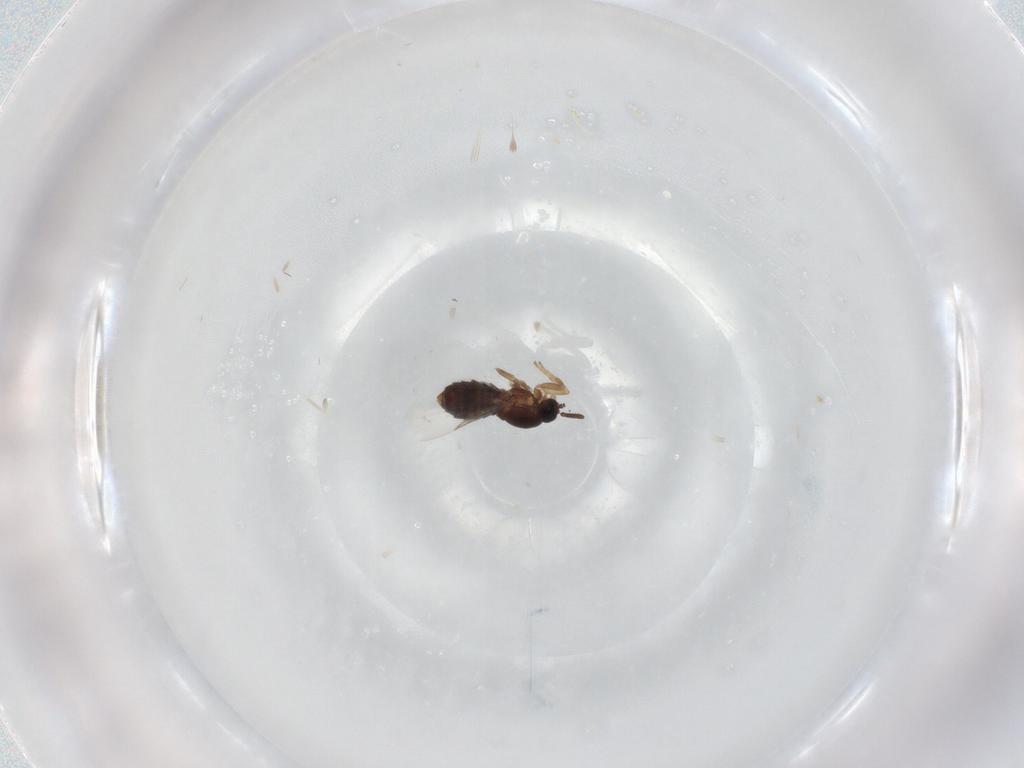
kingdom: Animalia
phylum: Arthropoda
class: Insecta
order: Diptera
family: Scatopsidae
